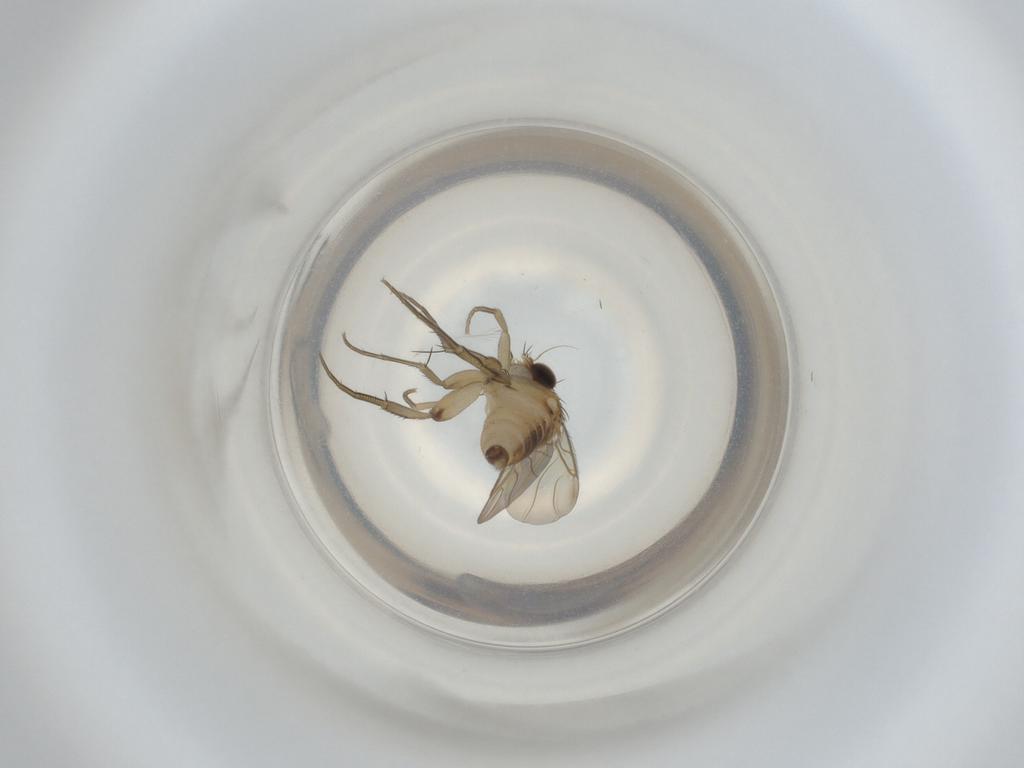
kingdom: Animalia
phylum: Arthropoda
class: Insecta
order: Diptera
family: Phoridae
